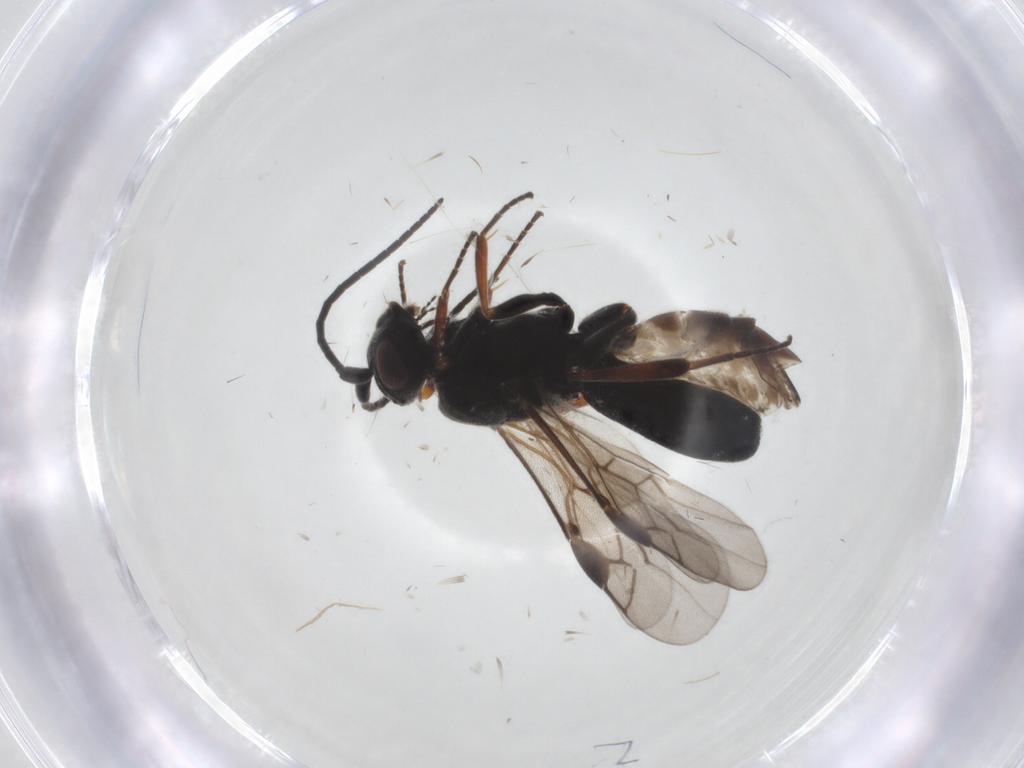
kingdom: Animalia
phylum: Arthropoda
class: Insecta
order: Hymenoptera
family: Braconidae
